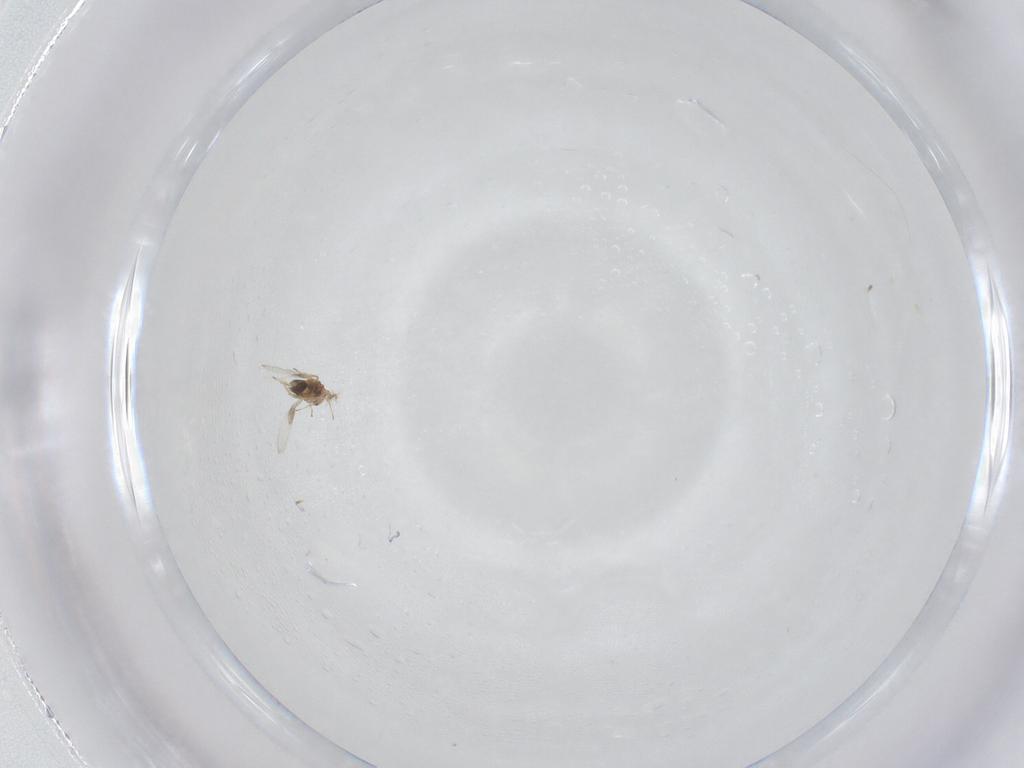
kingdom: Animalia
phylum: Arthropoda
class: Insecta
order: Hymenoptera
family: Trichogrammatidae
